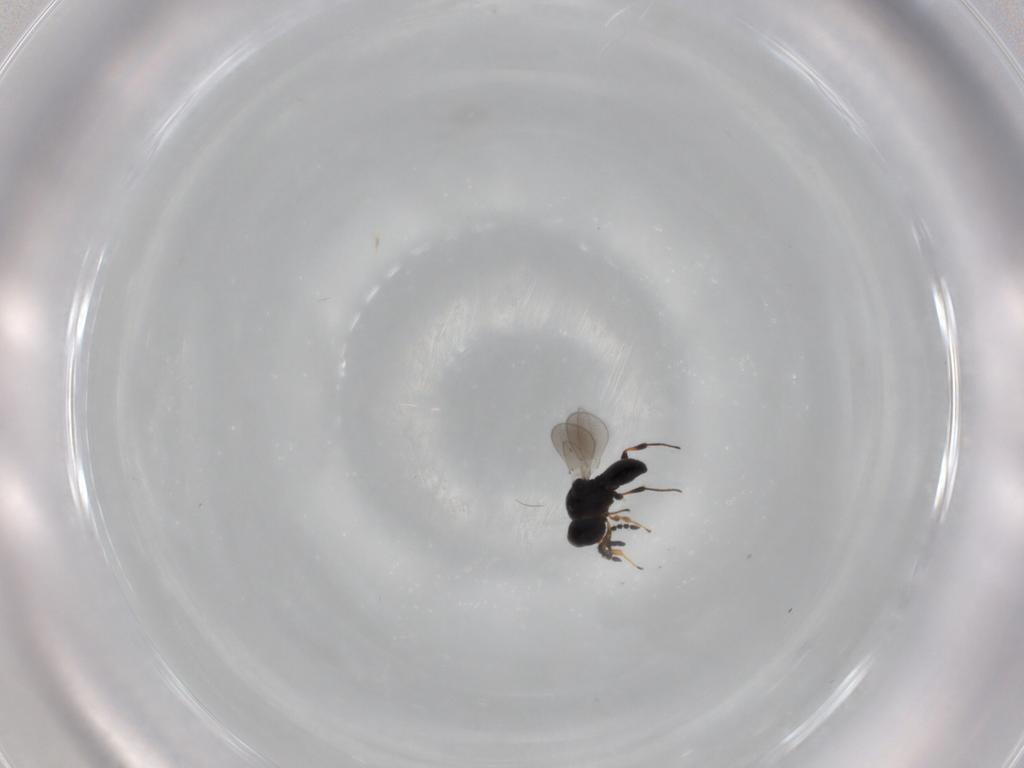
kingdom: Animalia
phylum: Arthropoda
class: Insecta
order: Hymenoptera
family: Platygastridae
